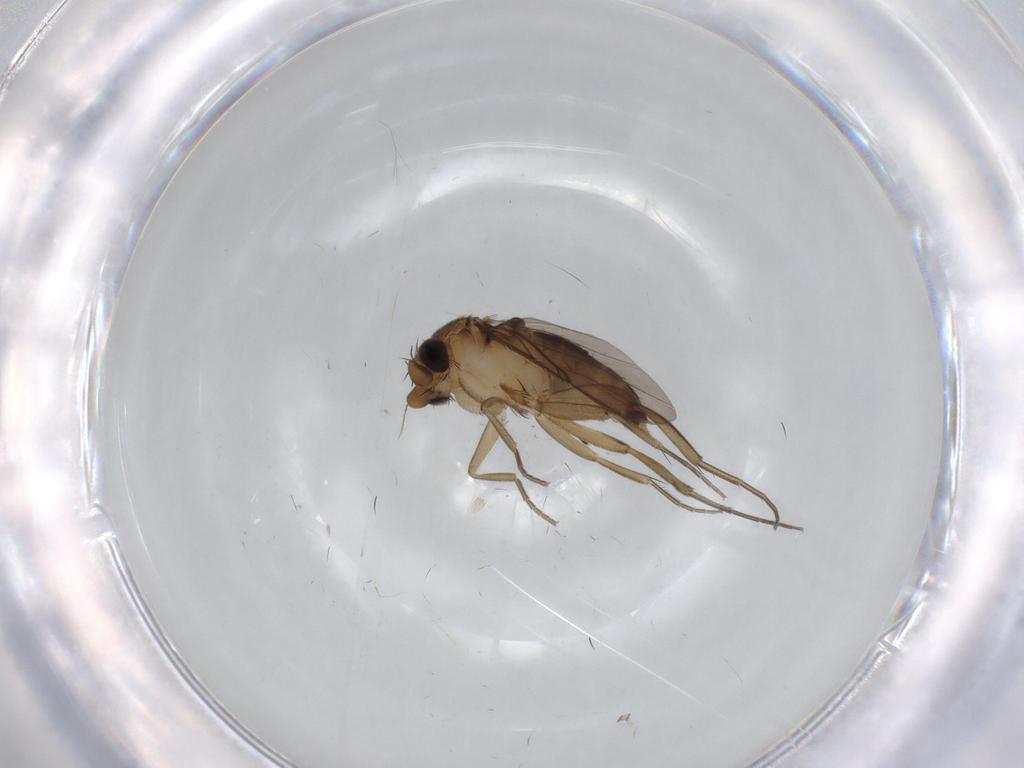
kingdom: Animalia
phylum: Arthropoda
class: Insecta
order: Diptera
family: Phoridae
